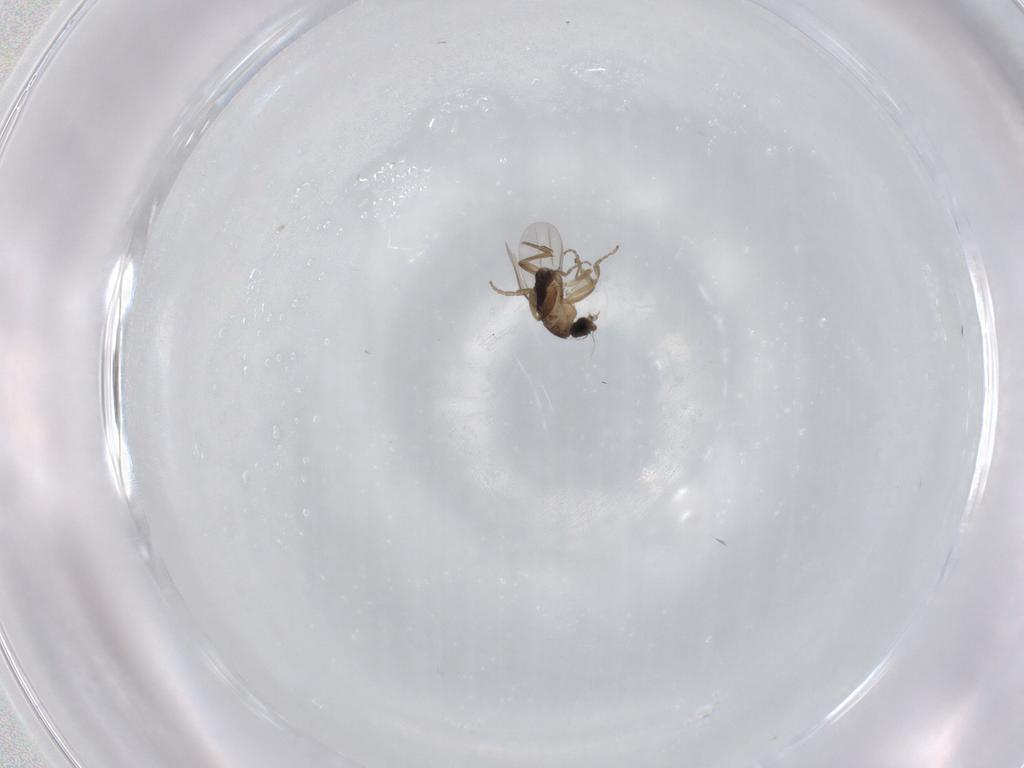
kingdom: Animalia
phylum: Arthropoda
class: Insecta
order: Diptera
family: Phoridae
